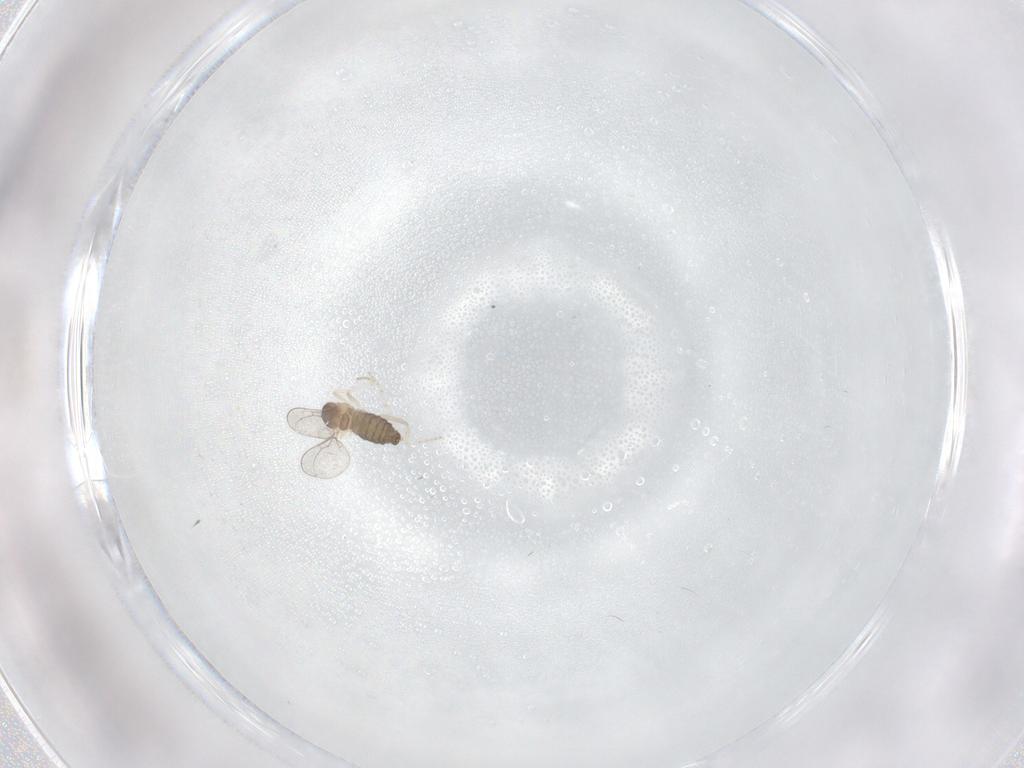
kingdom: Animalia
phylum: Arthropoda
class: Insecta
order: Diptera
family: Cecidomyiidae
